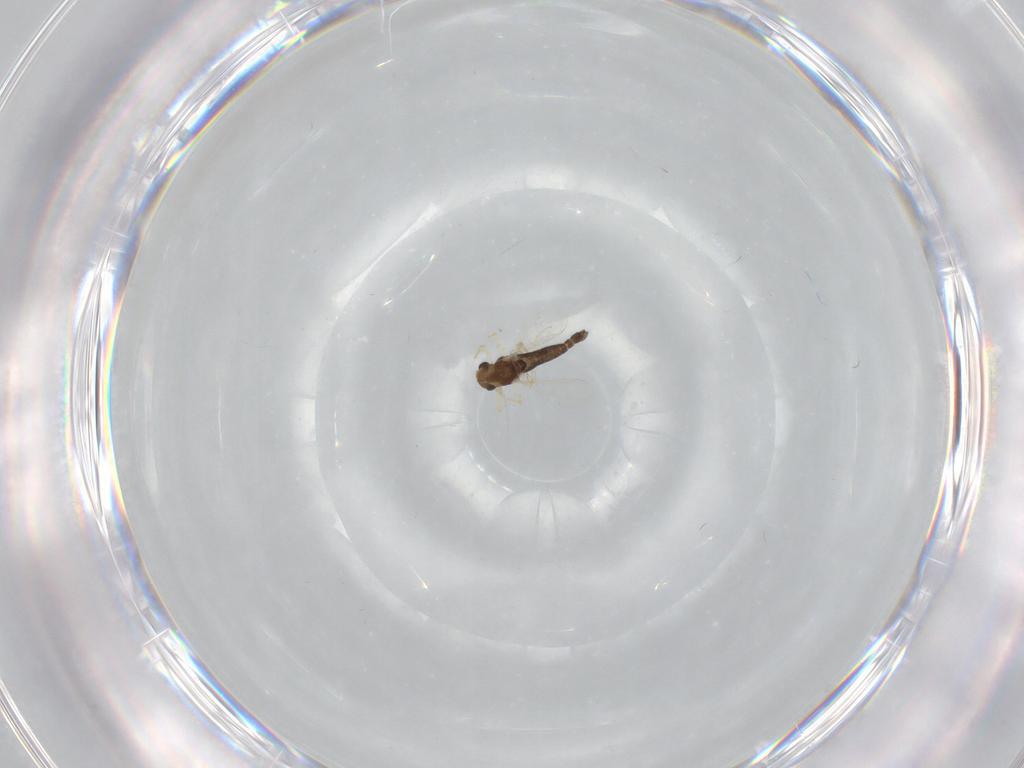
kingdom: Animalia
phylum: Arthropoda
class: Insecta
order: Diptera
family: Chironomidae
